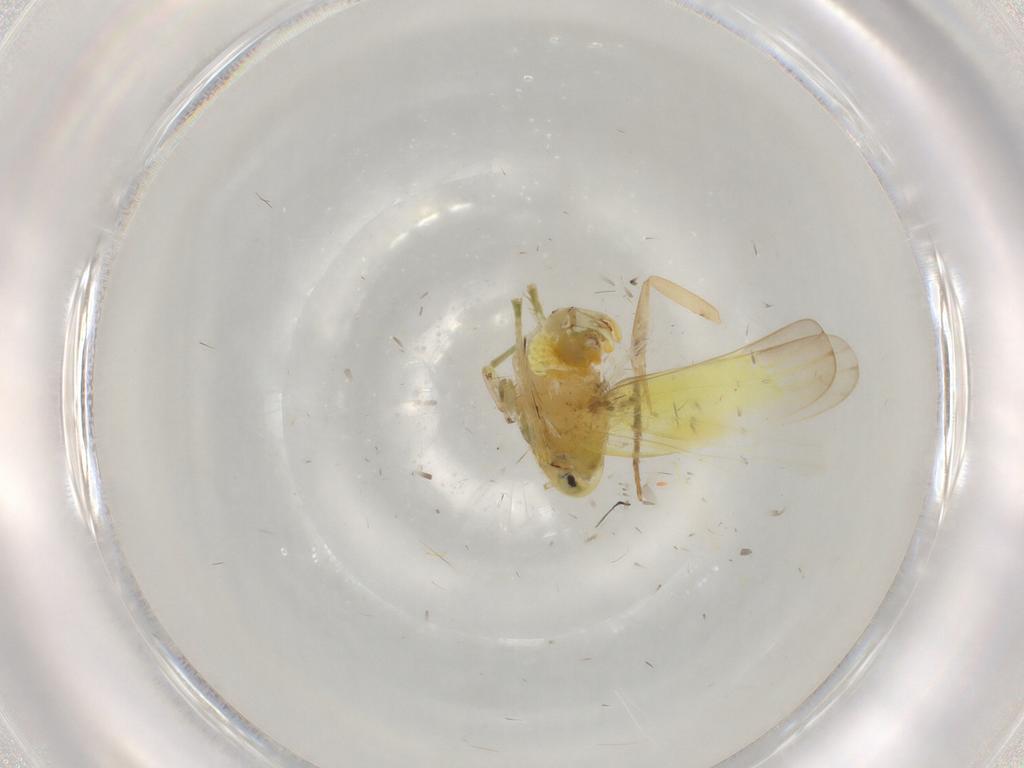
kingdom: Animalia
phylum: Arthropoda
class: Insecta
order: Hemiptera
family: Cicadellidae
